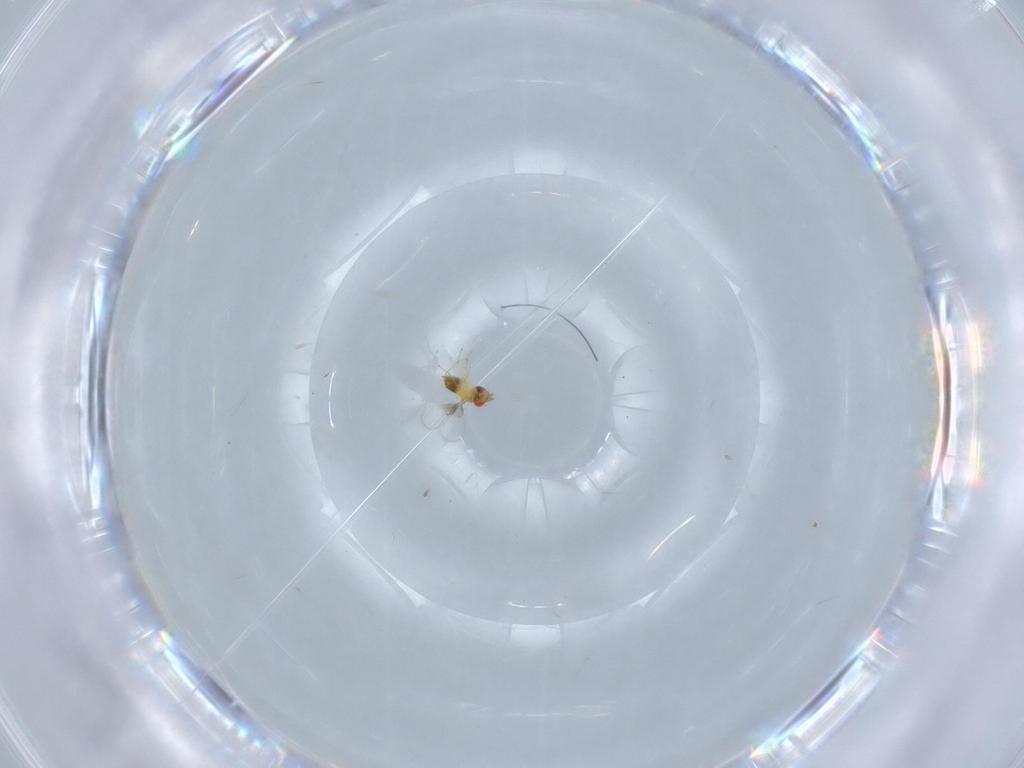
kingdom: Animalia
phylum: Arthropoda
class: Insecta
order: Hymenoptera
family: Trichogrammatidae
